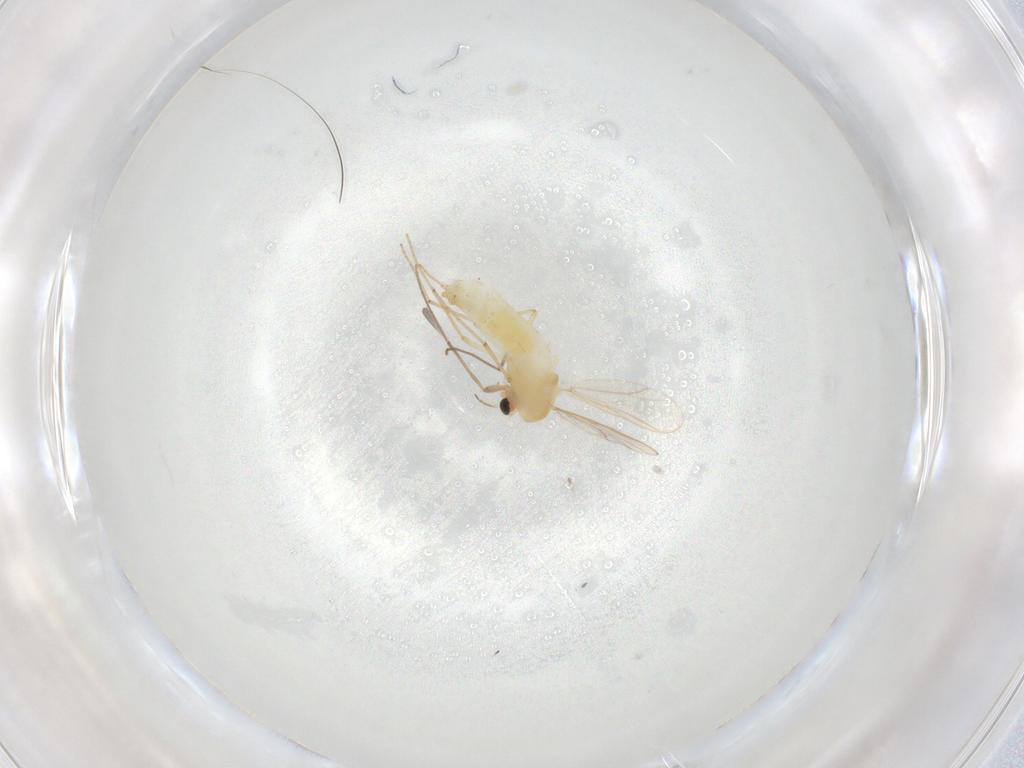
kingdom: Animalia
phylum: Arthropoda
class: Insecta
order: Diptera
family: Chironomidae
